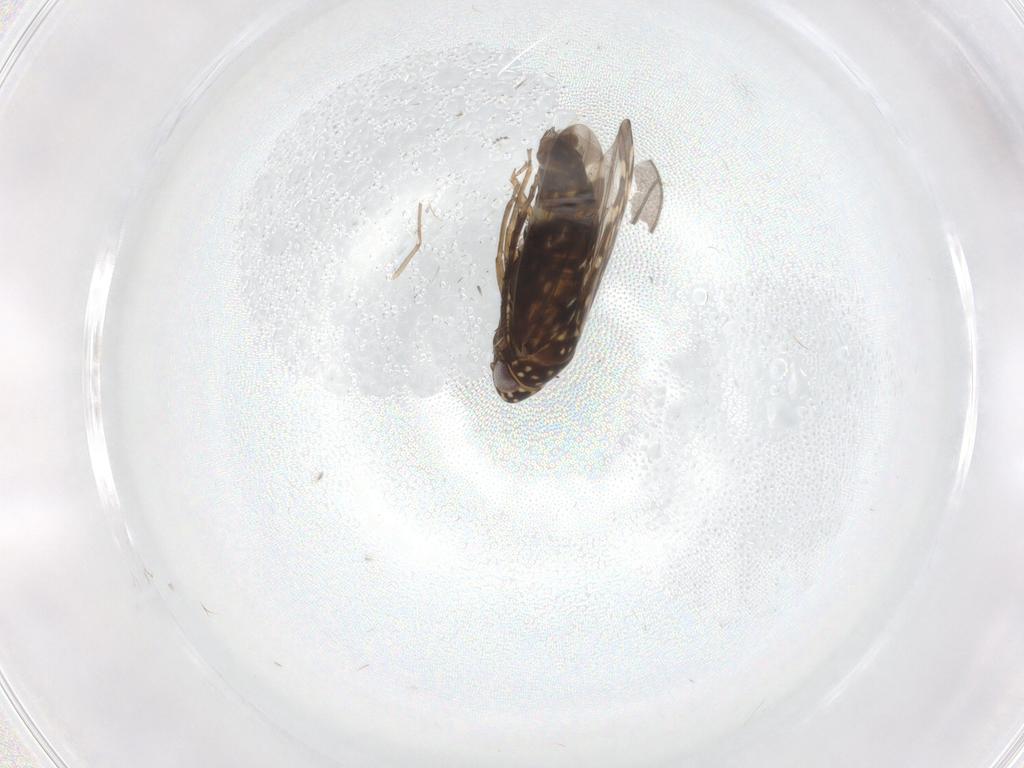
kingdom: Animalia
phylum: Arthropoda
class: Insecta
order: Hemiptera
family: Cicadellidae
